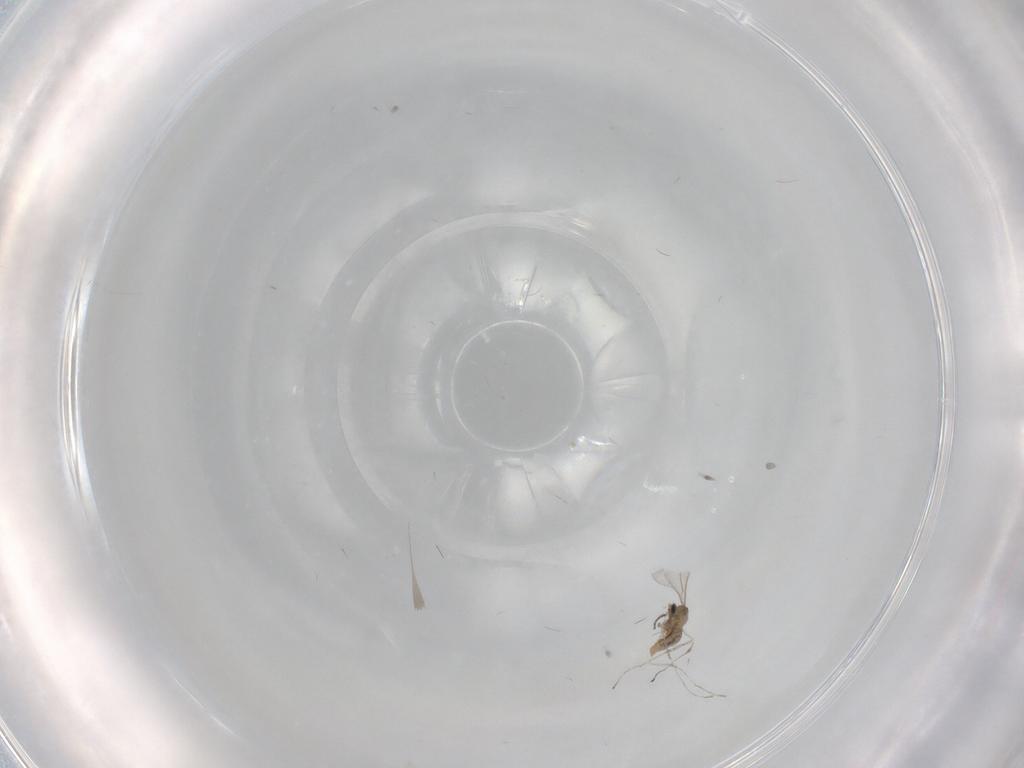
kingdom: Animalia
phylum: Arthropoda
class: Insecta
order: Diptera
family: Cecidomyiidae
